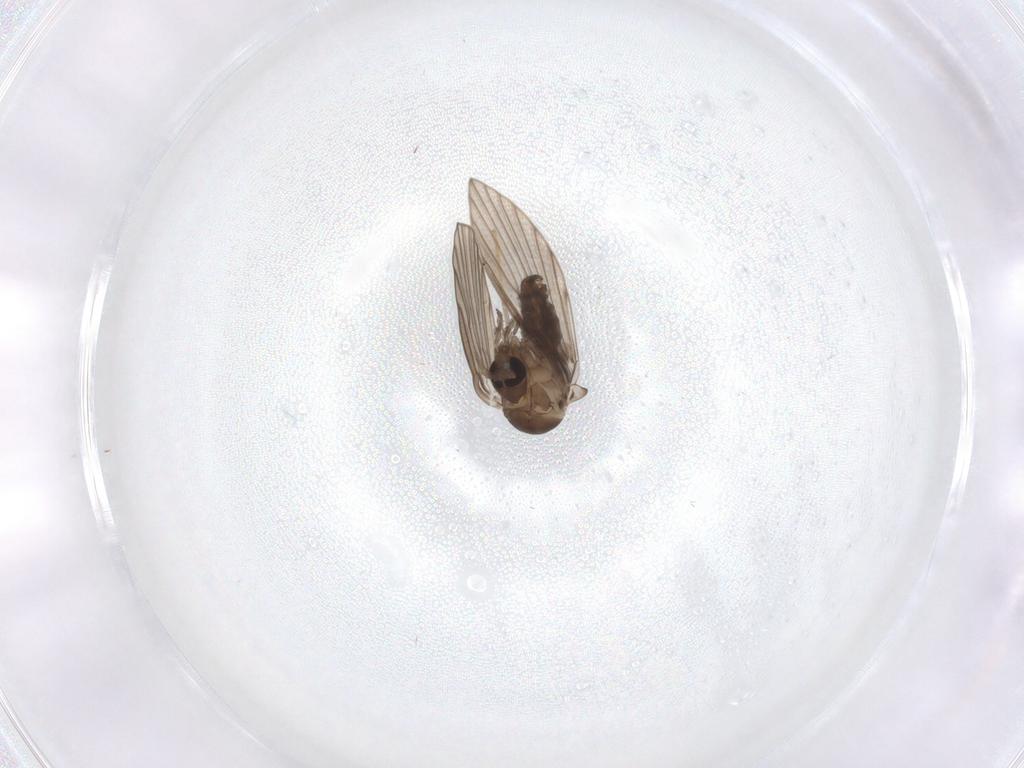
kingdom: Animalia
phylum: Arthropoda
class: Insecta
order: Diptera
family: Psychodidae
